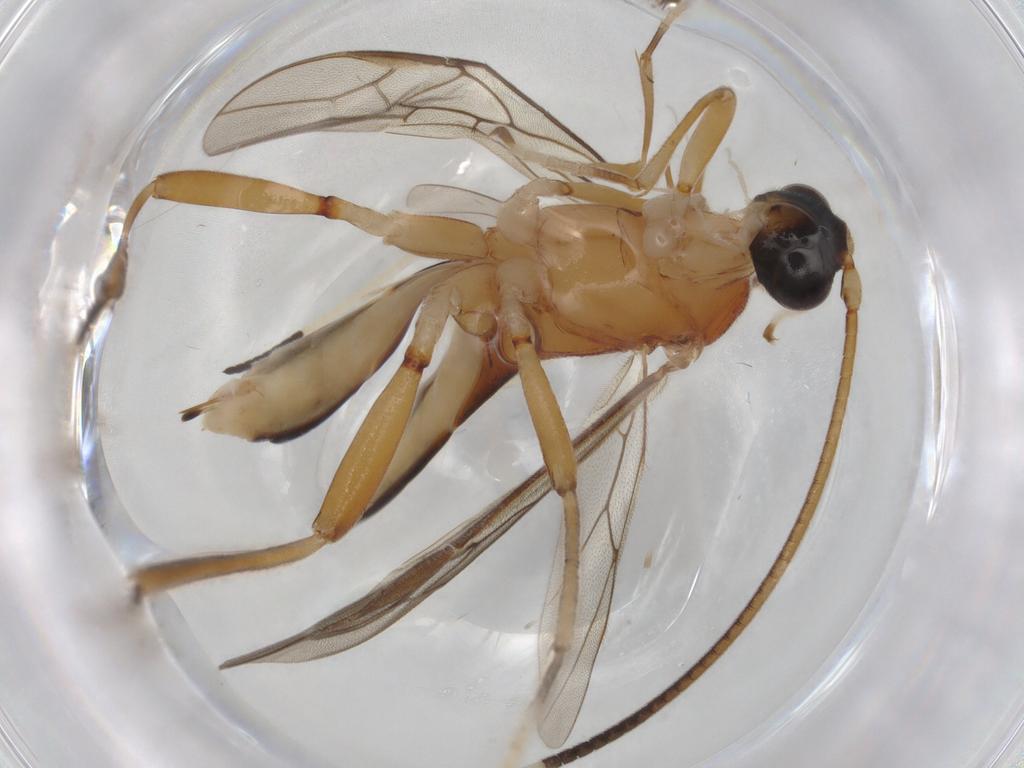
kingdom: Animalia
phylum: Arthropoda
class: Insecta
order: Hymenoptera
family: Scelionidae
